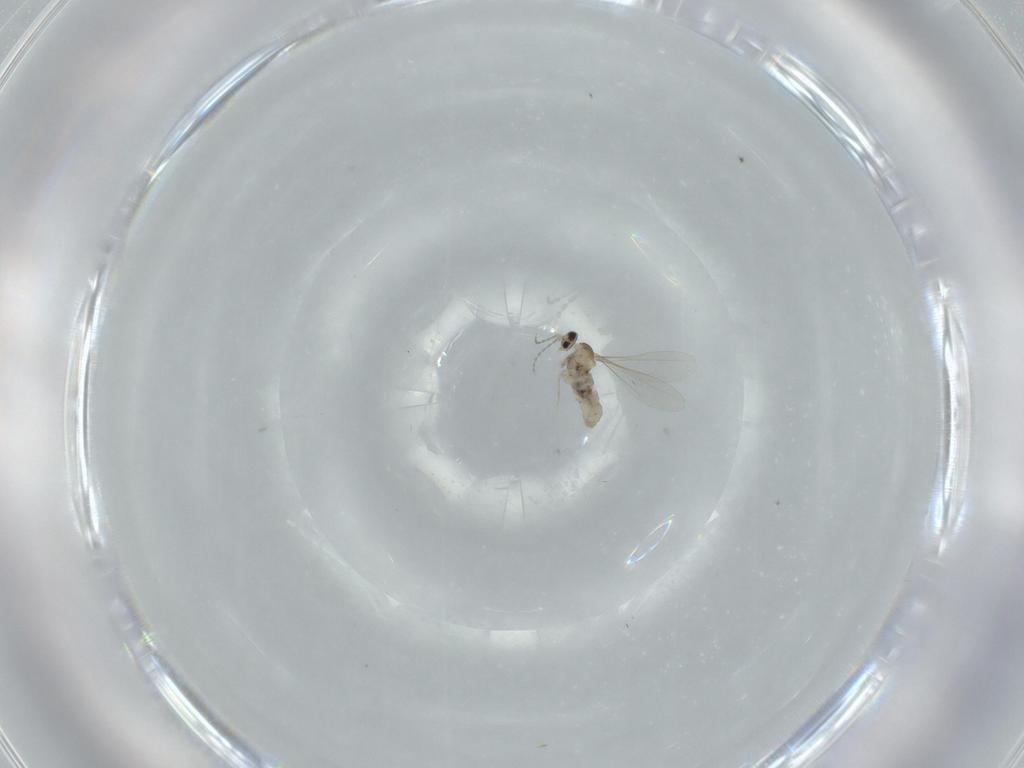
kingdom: Animalia
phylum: Arthropoda
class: Insecta
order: Diptera
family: Cecidomyiidae
